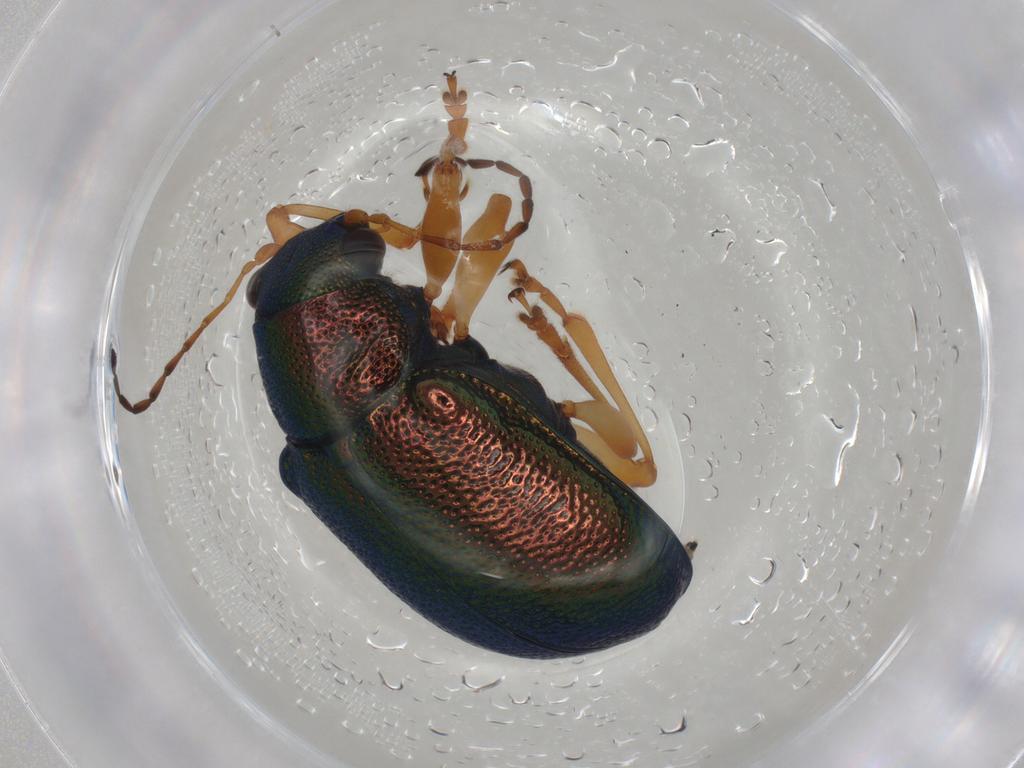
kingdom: Animalia
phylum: Arthropoda
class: Insecta
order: Coleoptera
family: Chrysomelidae
